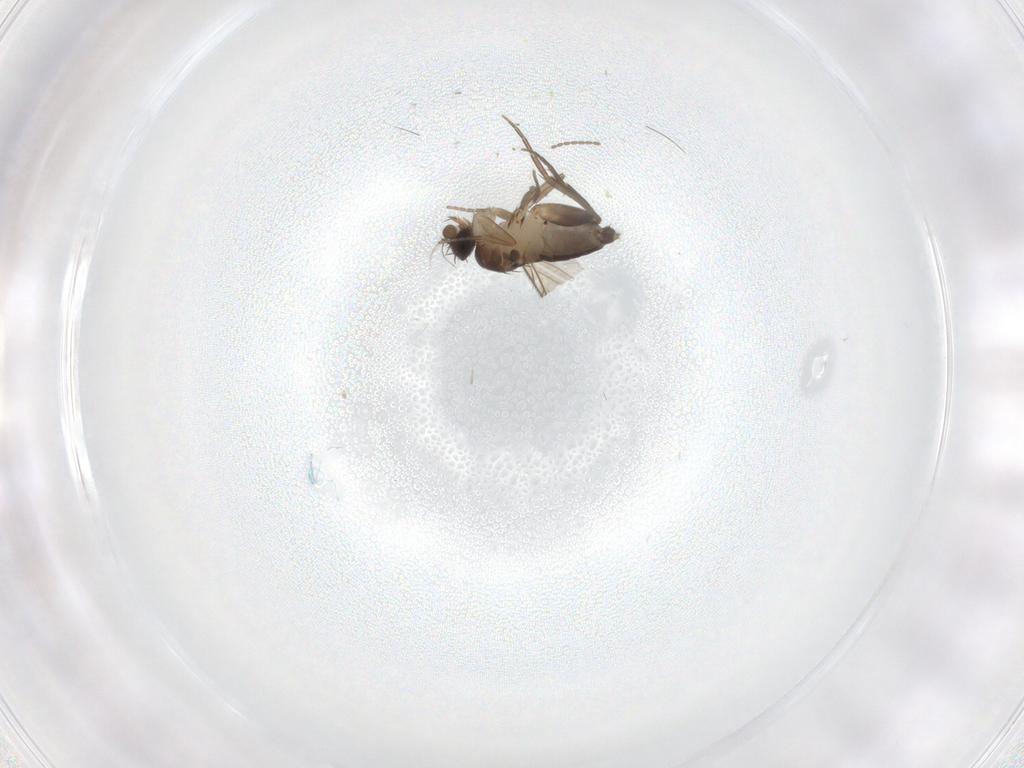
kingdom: Animalia
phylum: Arthropoda
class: Insecta
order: Diptera
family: Phoridae
